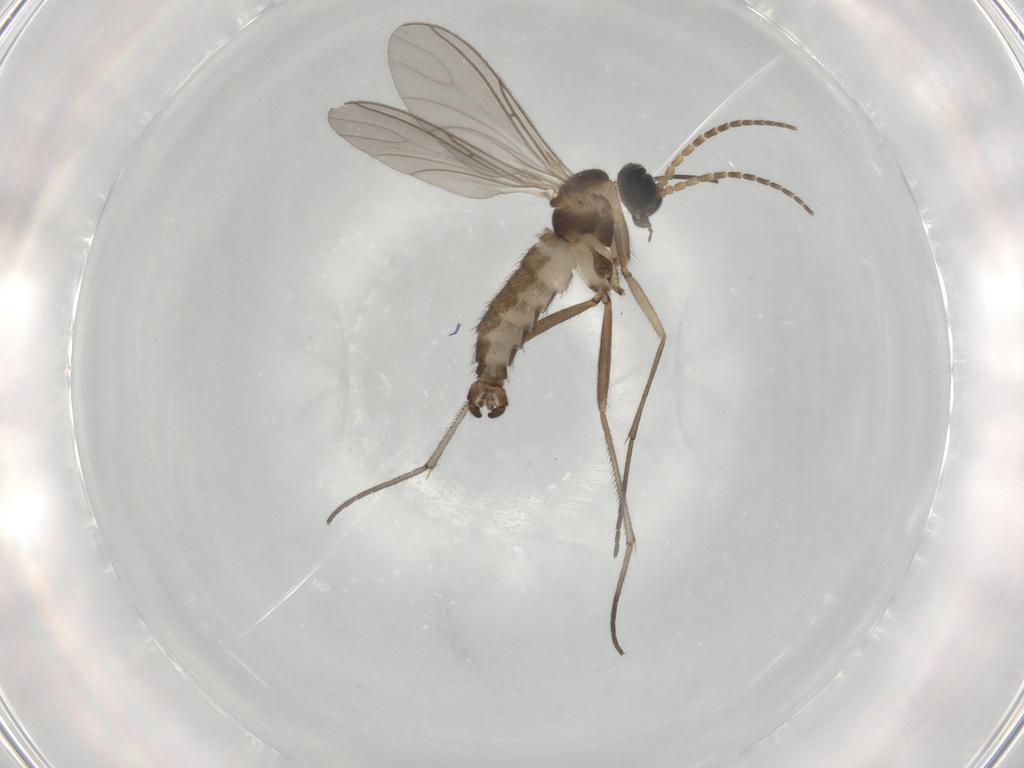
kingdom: Animalia
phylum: Arthropoda
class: Insecta
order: Diptera
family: Sciaridae
